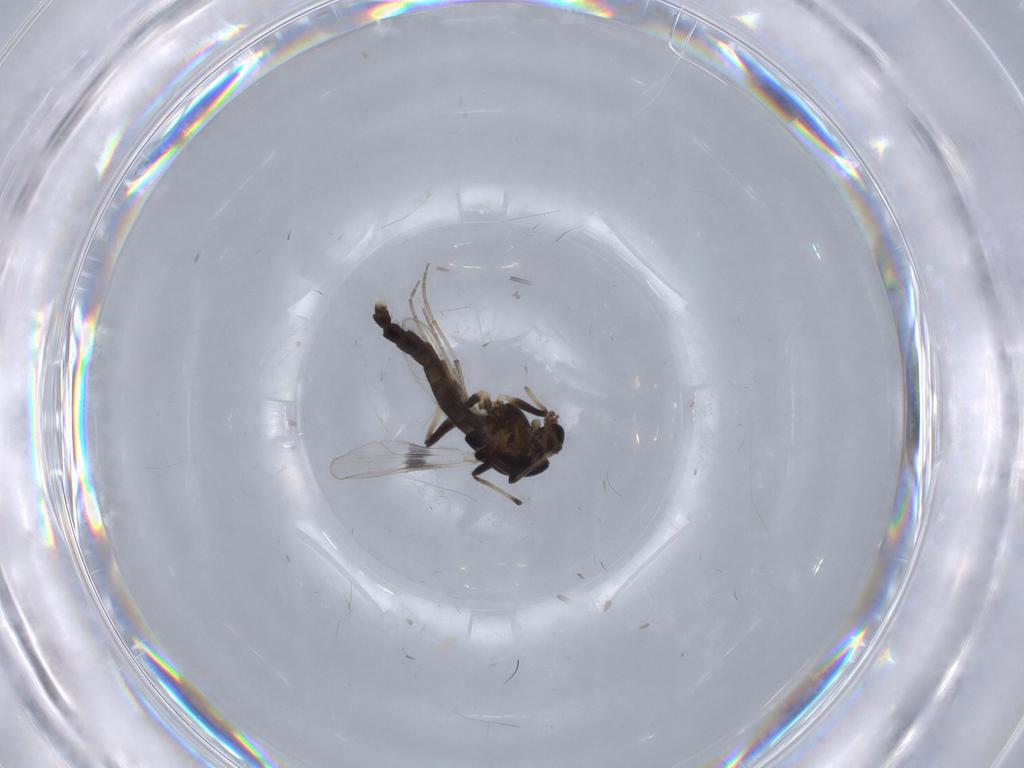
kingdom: Animalia
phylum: Arthropoda
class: Insecta
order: Diptera
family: Chironomidae
